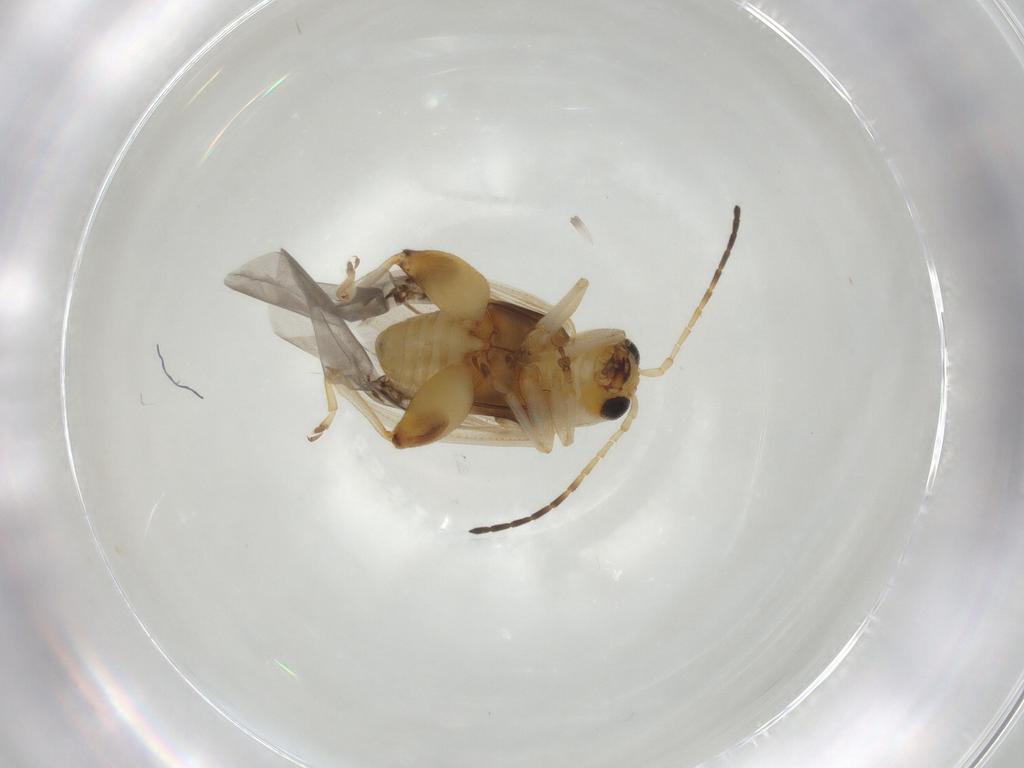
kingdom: Animalia
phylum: Arthropoda
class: Insecta
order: Coleoptera
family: Chrysomelidae
